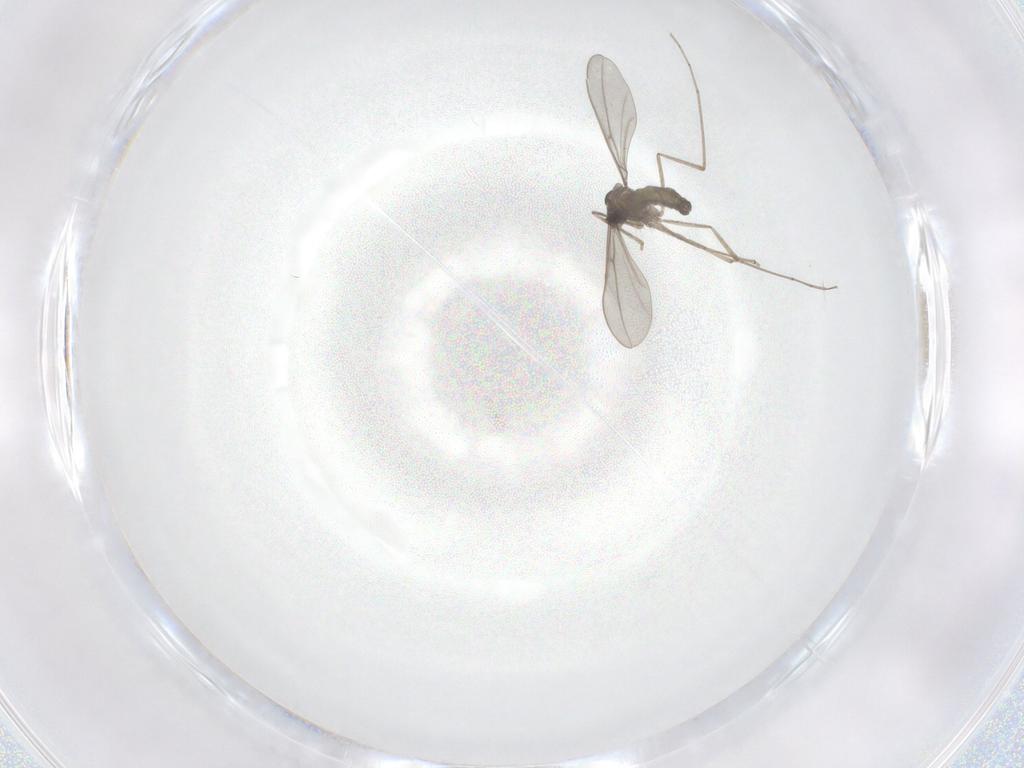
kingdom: Animalia
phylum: Arthropoda
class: Insecta
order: Diptera
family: Cecidomyiidae
